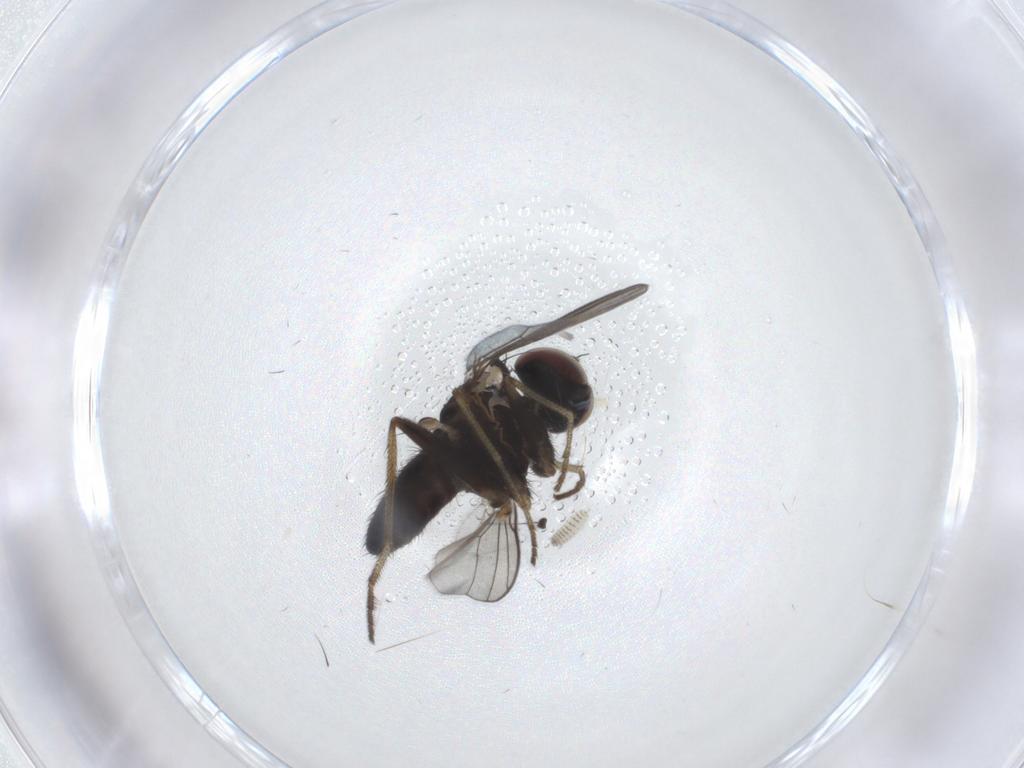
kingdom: Animalia
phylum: Arthropoda
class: Insecta
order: Diptera
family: Dolichopodidae
